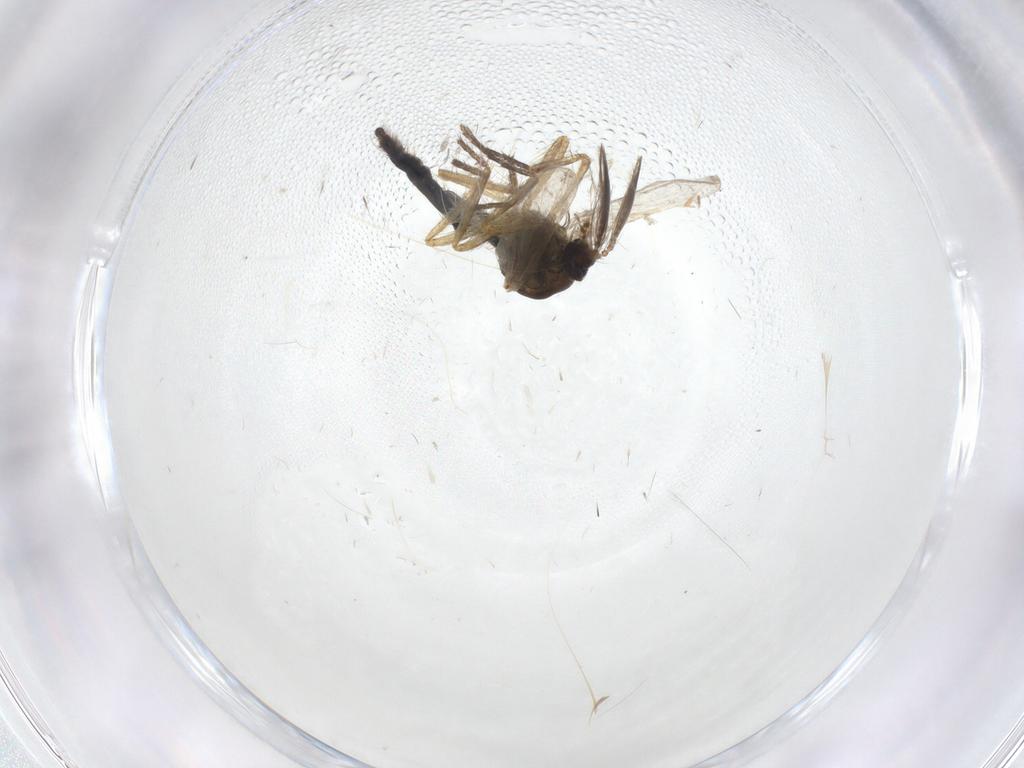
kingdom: Animalia
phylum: Arthropoda
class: Insecta
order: Diptera
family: Ceratopogonidae
